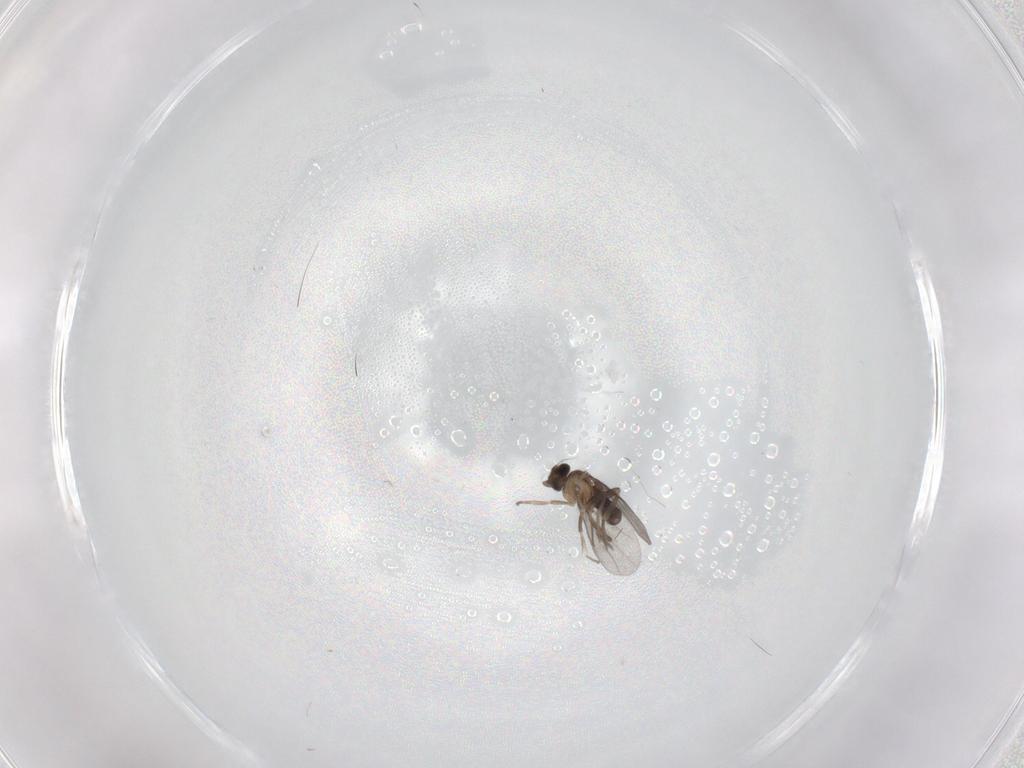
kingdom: Animalia
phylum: Arthropoda
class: Insecta
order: Diptera
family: Cecidomyiidae
